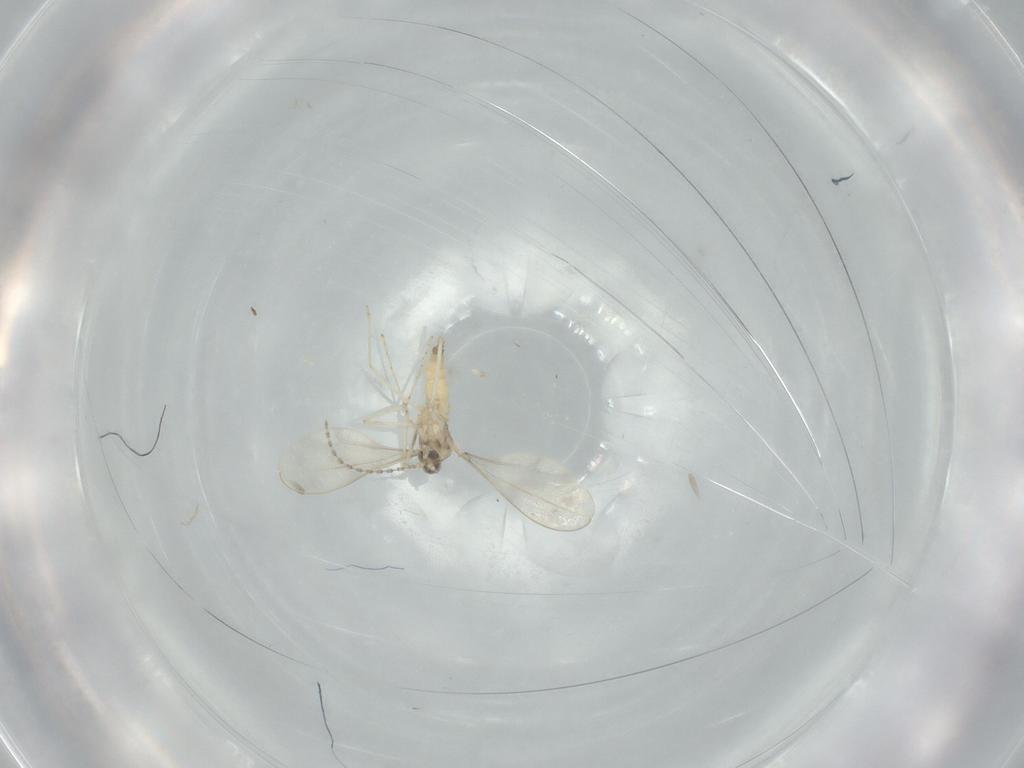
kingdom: Animalia
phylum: Arthropoda
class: Insecta
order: Diptera
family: Cecidomyiidae
